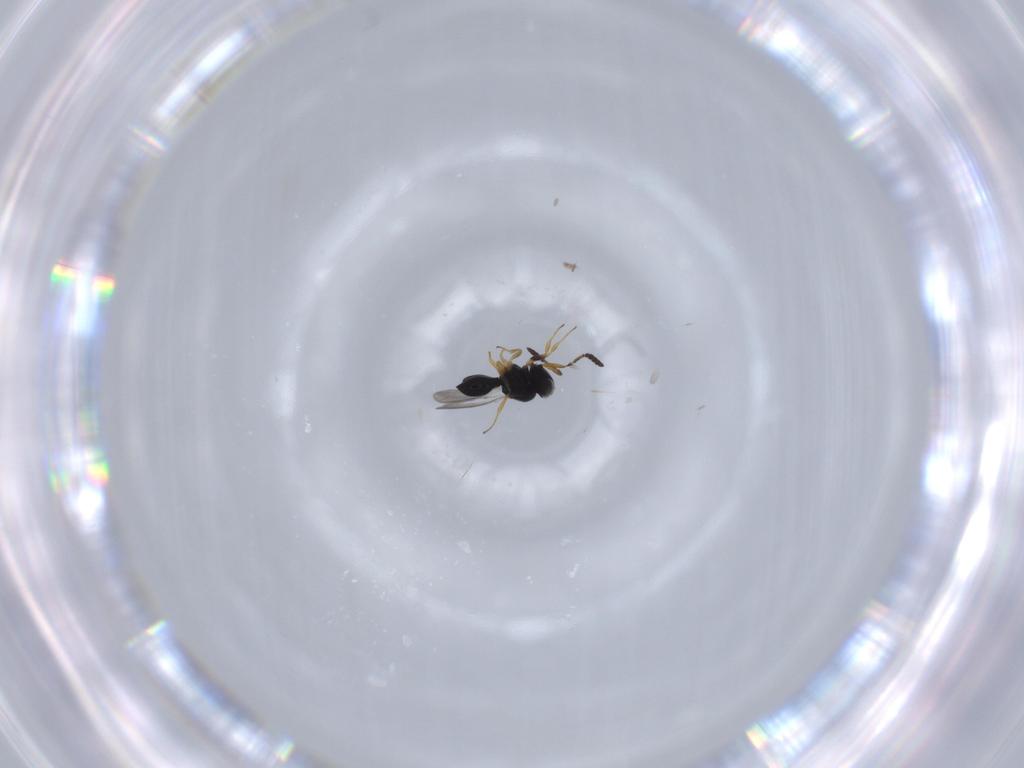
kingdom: Animalia
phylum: Arthropoda
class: Insecta
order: Hymenoptera
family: Scelionidae
